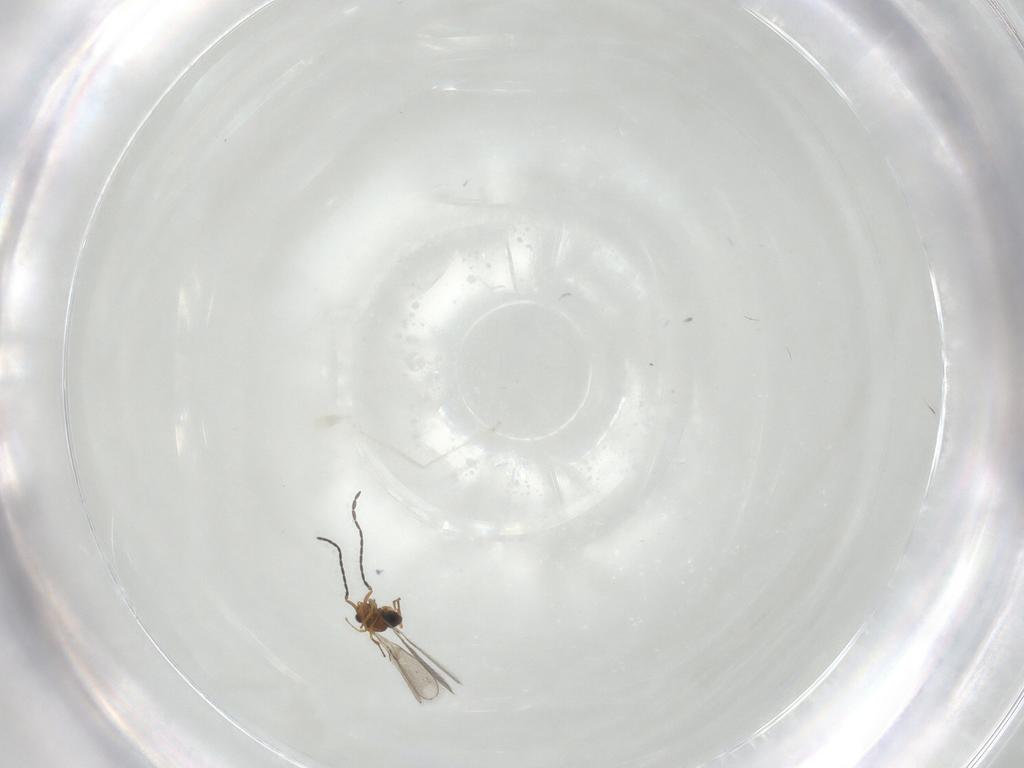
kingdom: Animalia
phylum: Arthropoda
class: Insecta
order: Diptera
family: Cecidomyiidae
